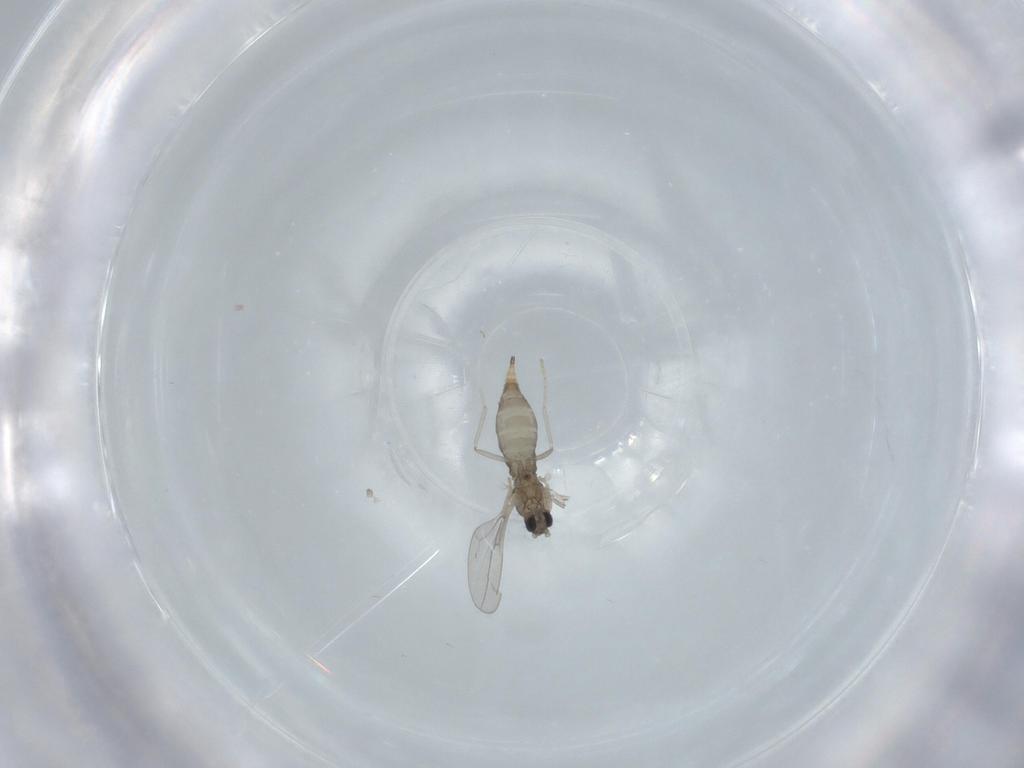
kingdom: Animalia
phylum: Arthropoda
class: Insecta
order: Diptera
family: Cecidomyiidae
